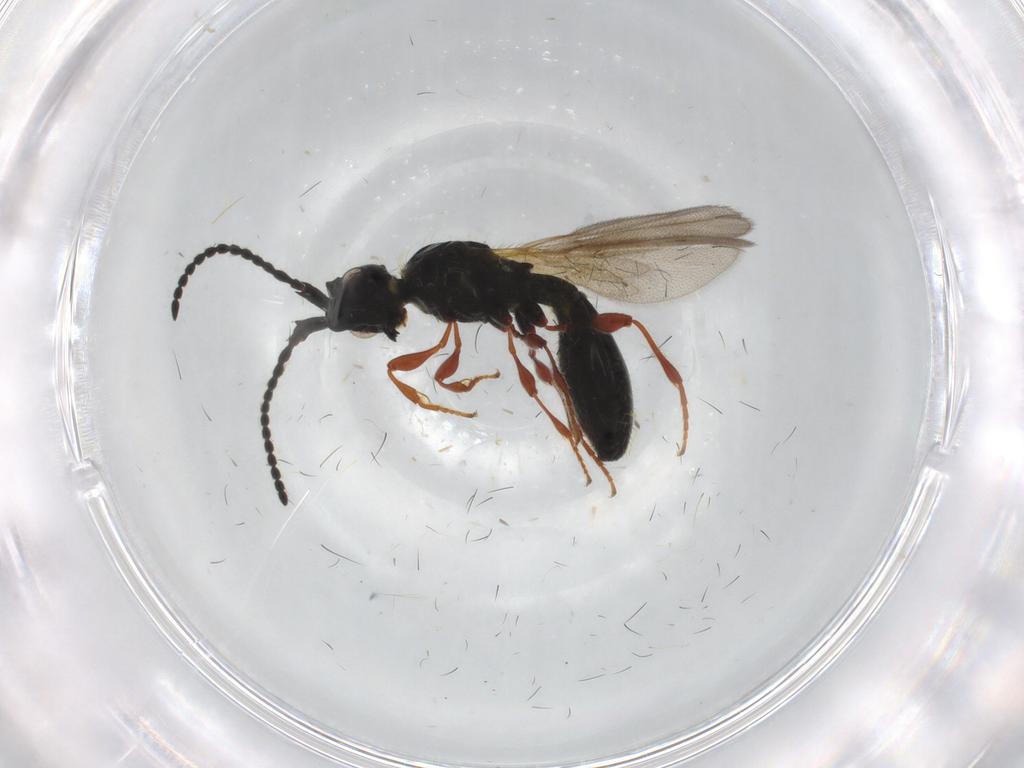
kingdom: Animalia
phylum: Arthropoda
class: Insecta
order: Hymenoptera
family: Diapriidae
